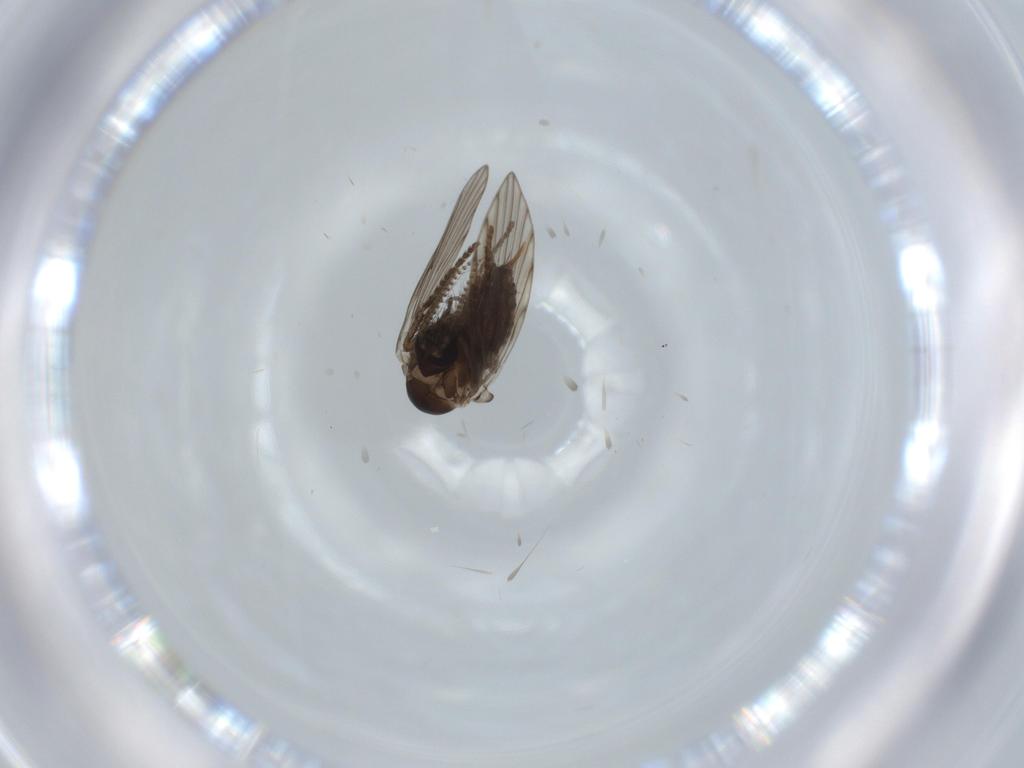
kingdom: Animalia
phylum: Arthropoda
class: Insecta
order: Diptera
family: Psychodidae
